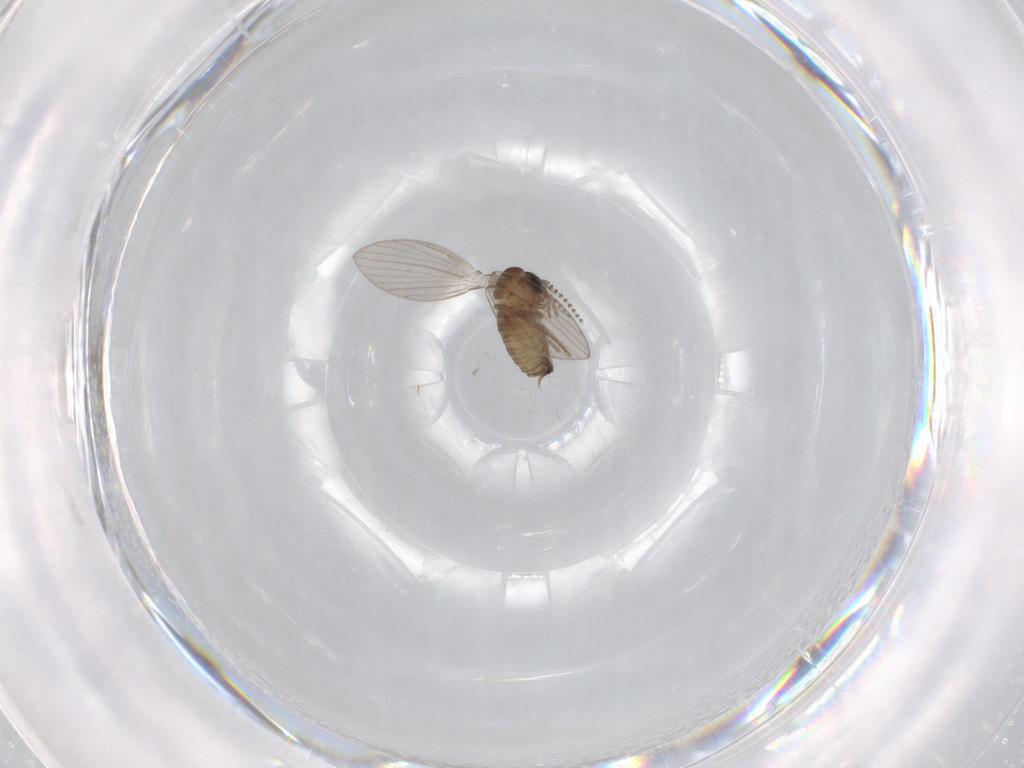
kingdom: Animalia
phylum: Arthropoda
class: Insecta
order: Diptera
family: Psychodidae
